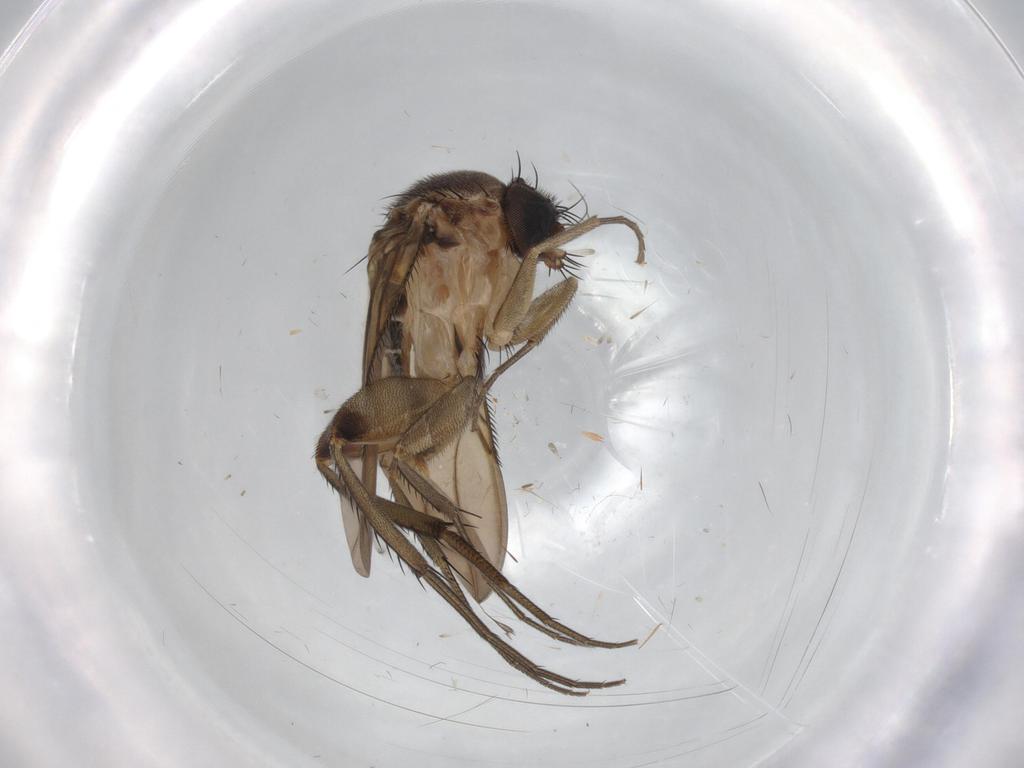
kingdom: Animalia
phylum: Arthropoda
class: Insecta
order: Diptera
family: Phoridae
